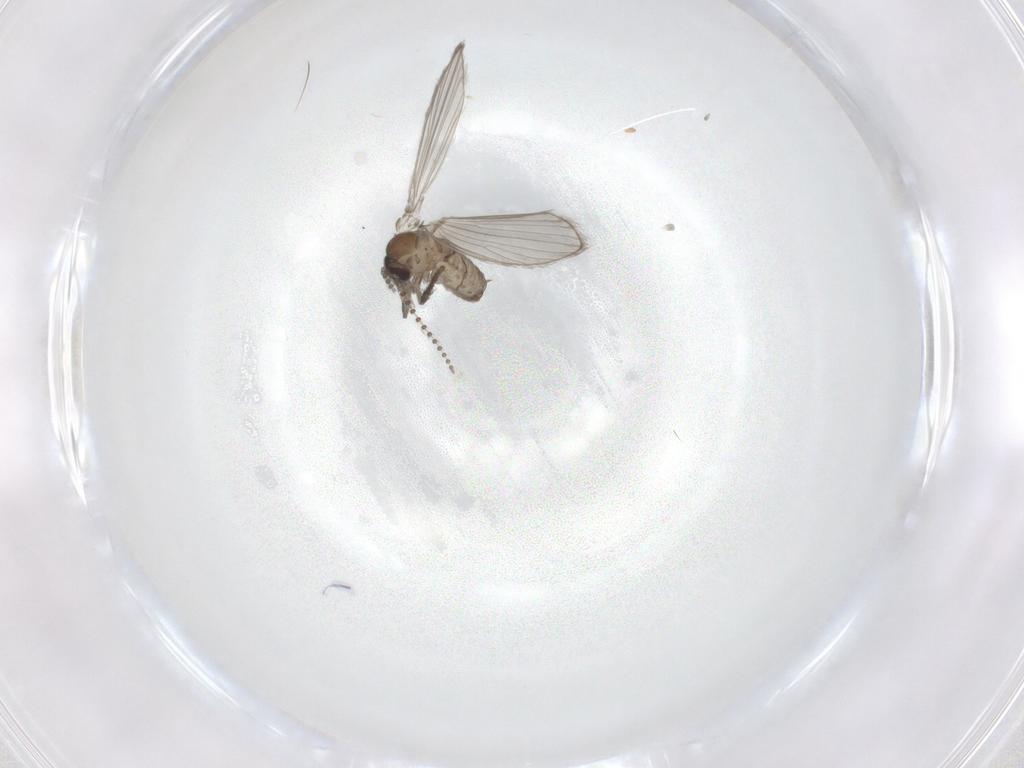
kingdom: Animalia
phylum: Arthropoda
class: Insecta
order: Diptera
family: Psychodidae
